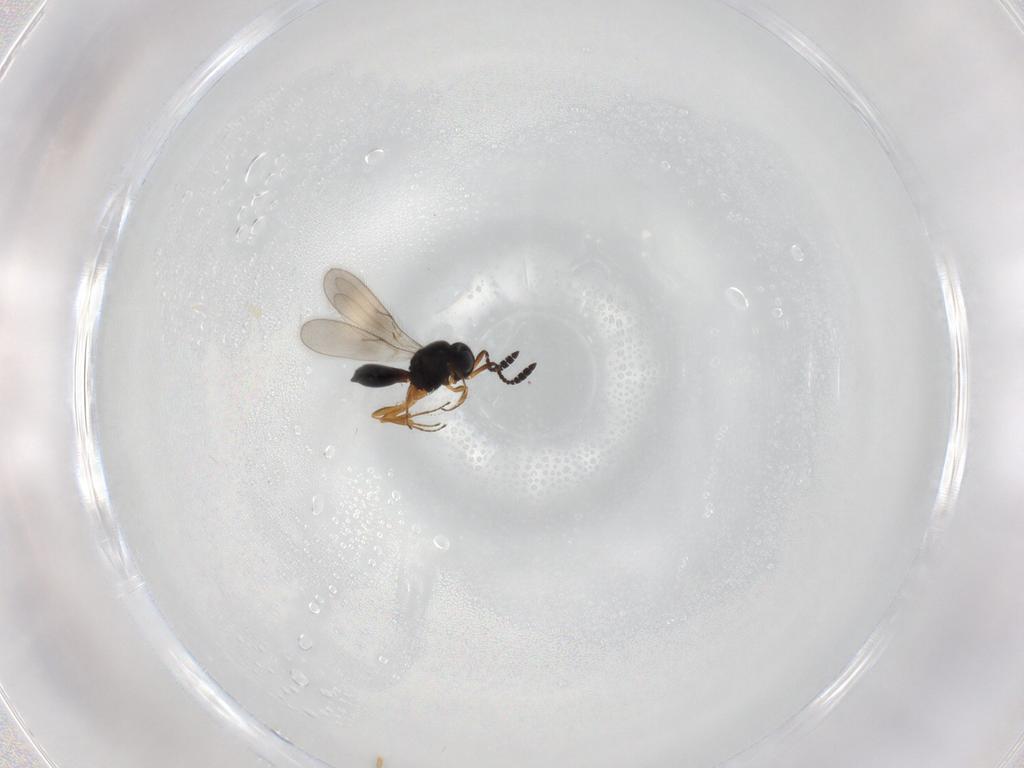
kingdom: Animalia
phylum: Arthropoda
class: Insecta
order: Hymenoptera
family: Scelionidae
